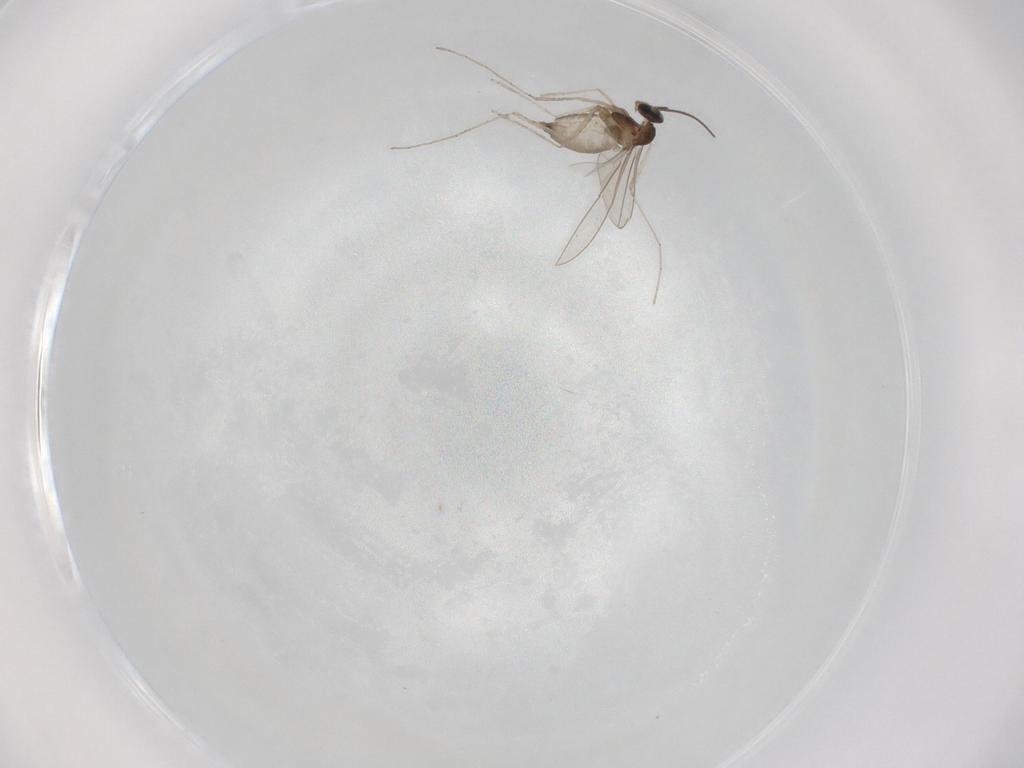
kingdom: Animalia
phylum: Arthropoda
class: Insecta
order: Diptera
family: Cecidomyiidae
